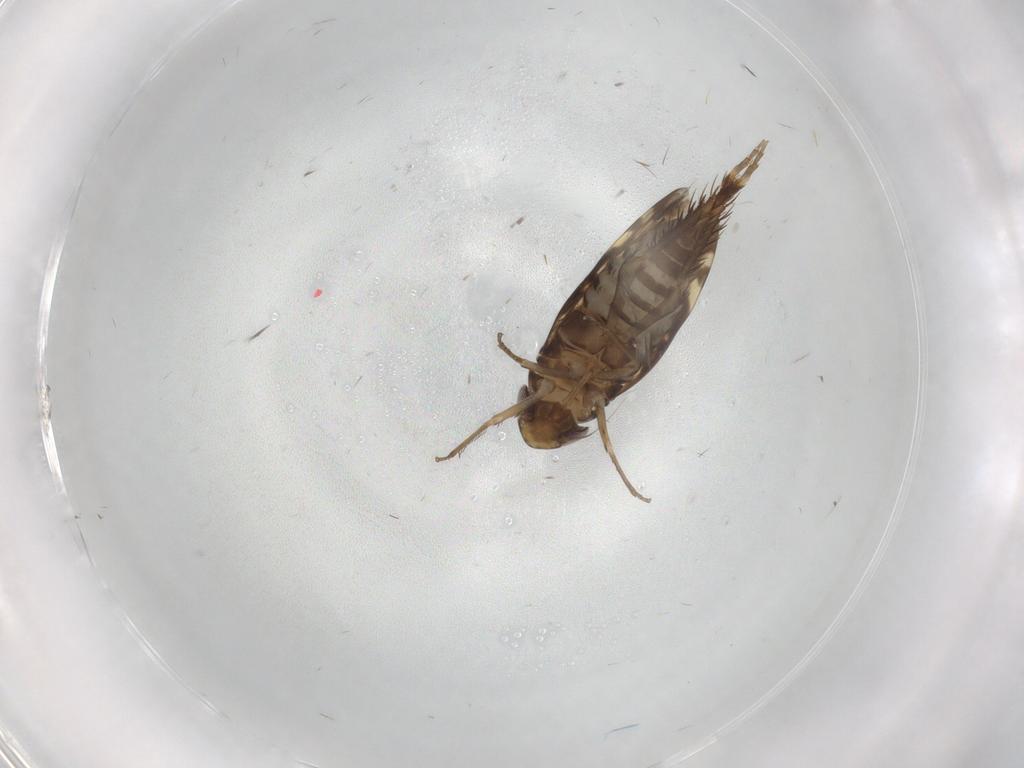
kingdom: Animalia
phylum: Arthropoda
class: Insecta
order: Hemiptera
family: Cicadellidae
